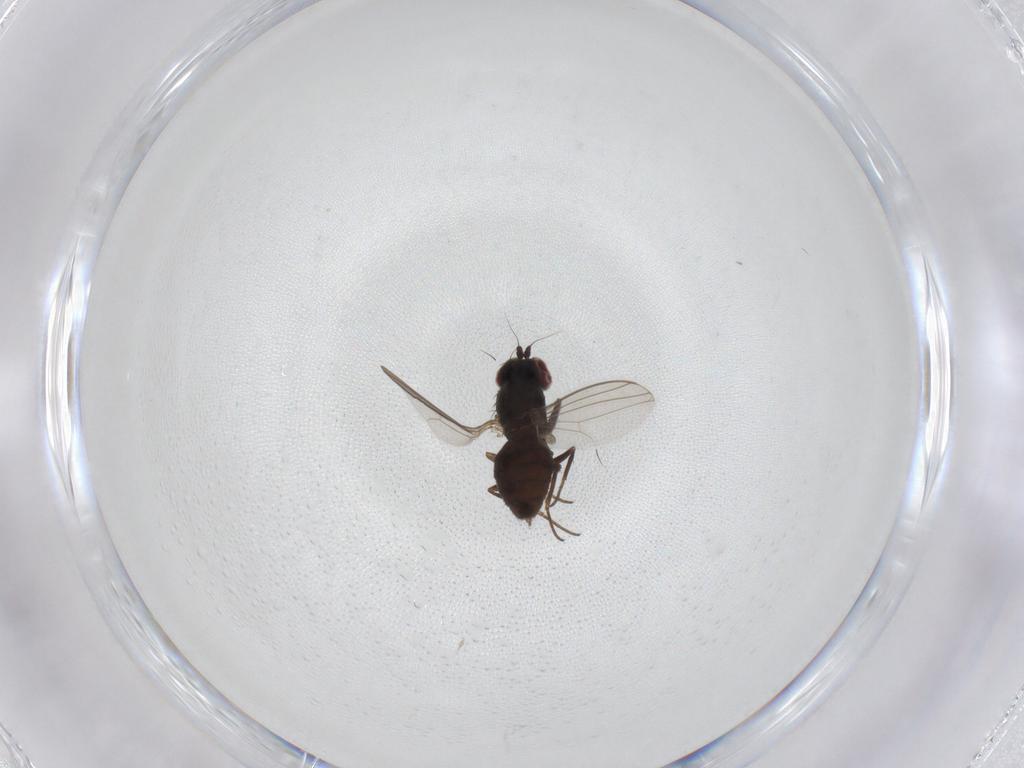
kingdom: Animalia
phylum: Arthropoda
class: Insecta
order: Diptera
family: Dolichopodidae
